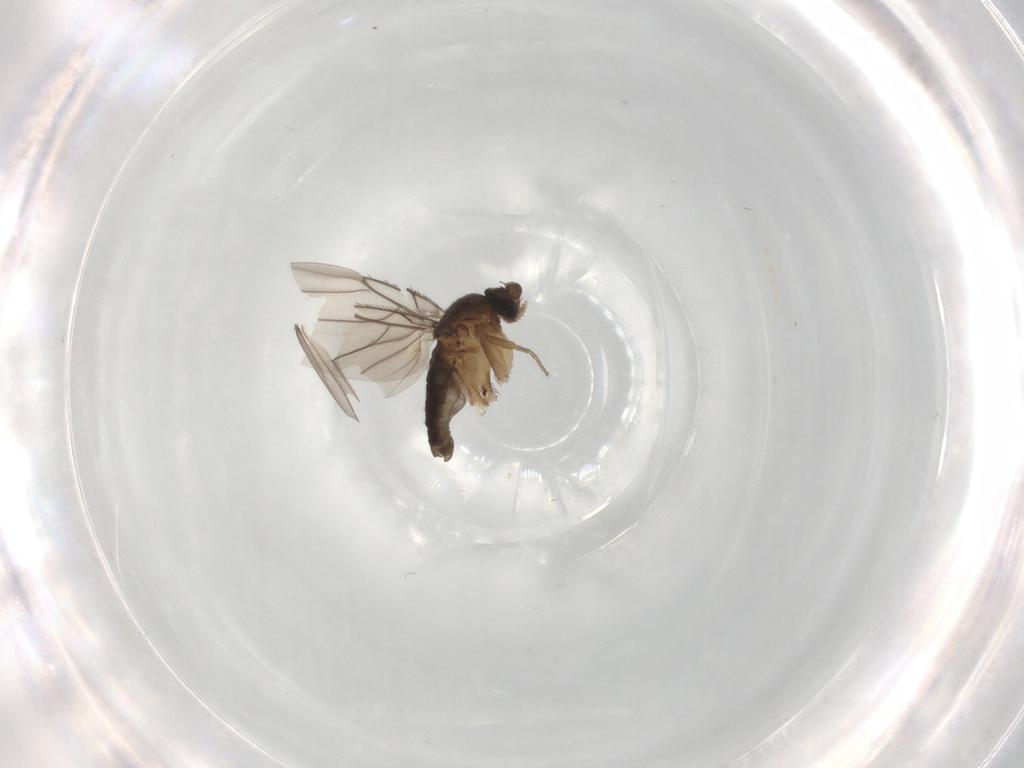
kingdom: Animalia
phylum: Arthropoda
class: Insecta
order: Diptera
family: Phoridae
